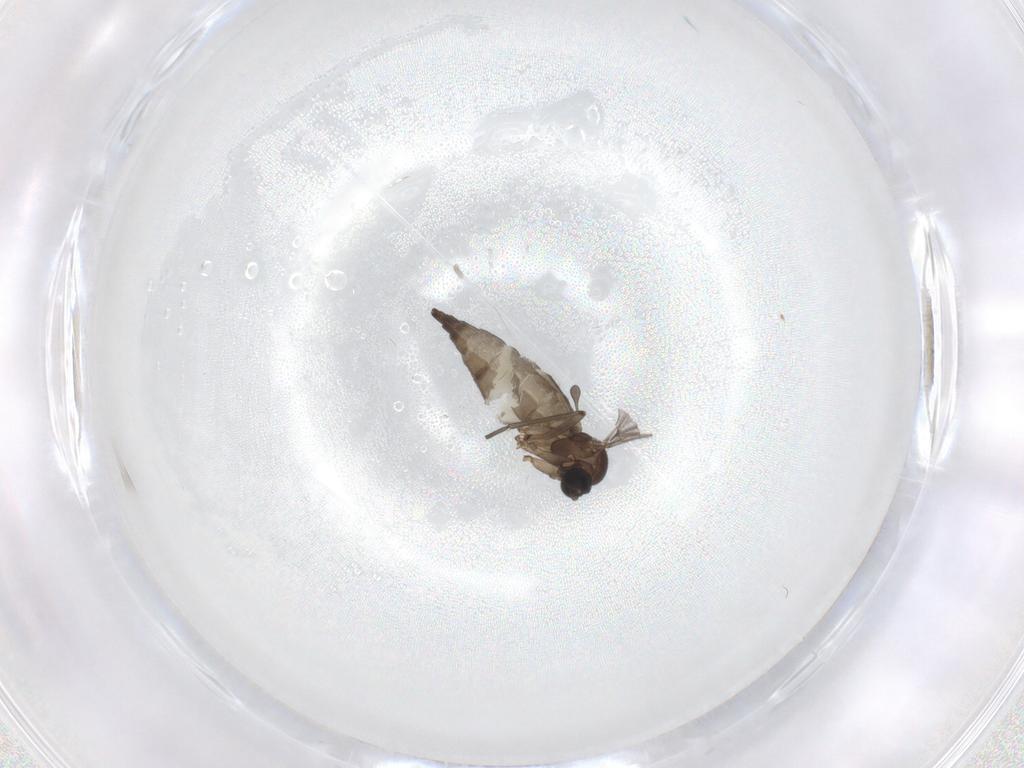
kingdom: Animalia
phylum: Arthropoda
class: Insecta
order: Diptera
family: Sciaridae
